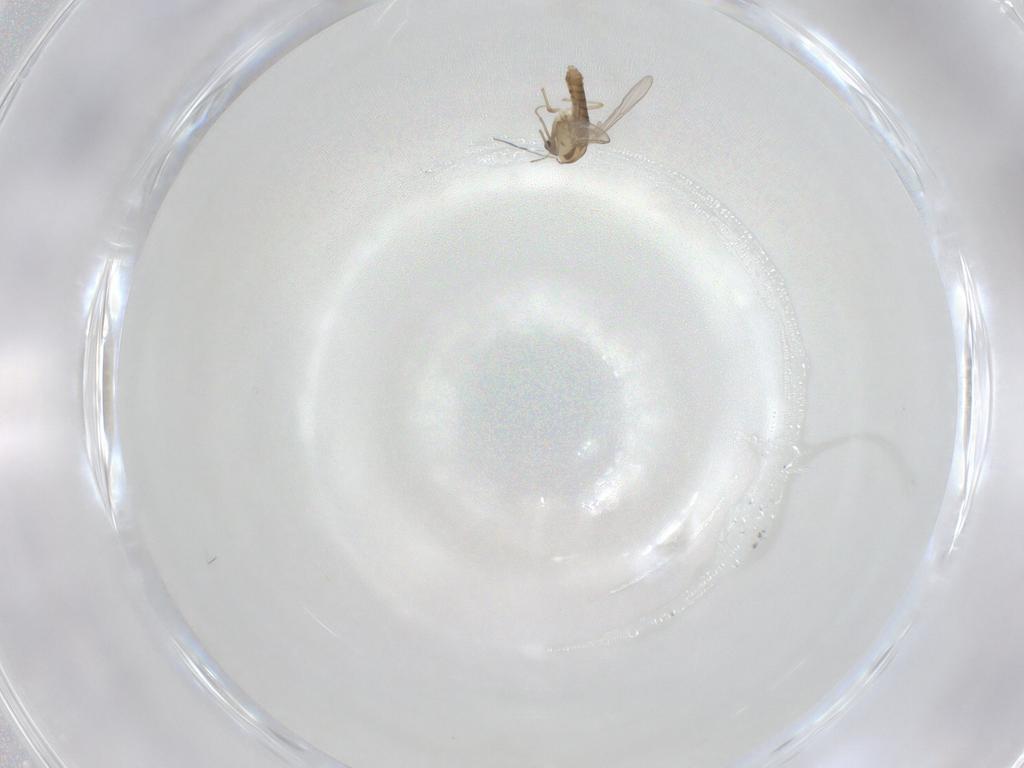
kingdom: Animalia
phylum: Arthropoda
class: Insecta
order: Diptera
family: Chironomidae
